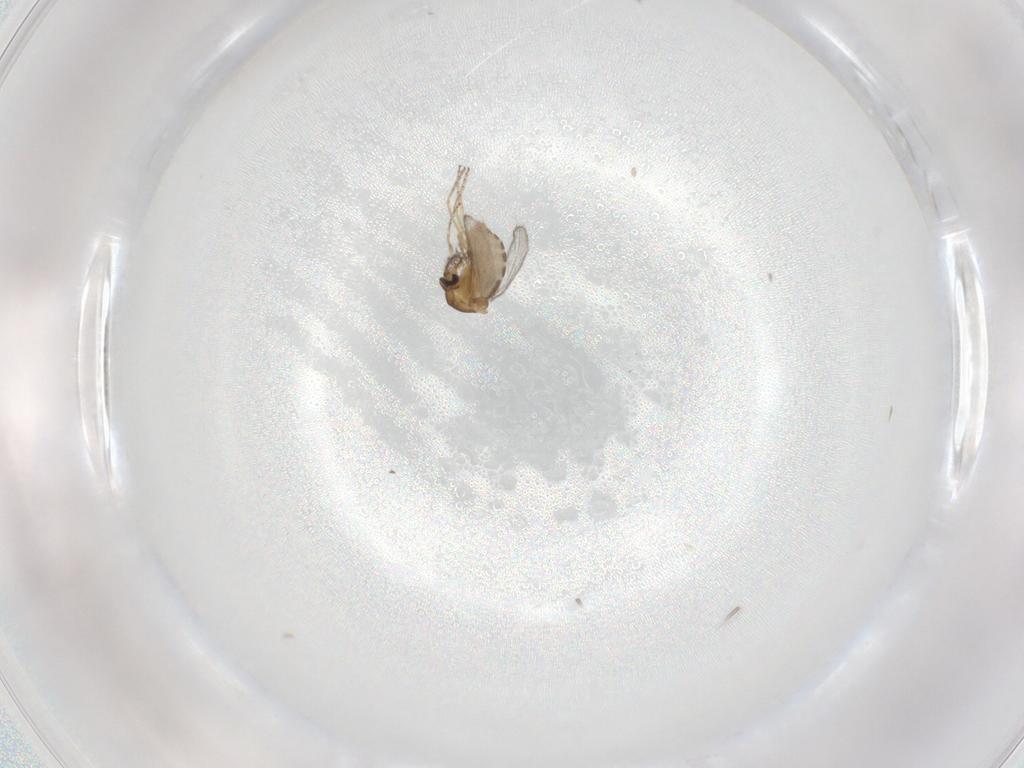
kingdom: Animalia
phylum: Arthropoda
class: Insecta
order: Diptera
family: Ceratopogonidae
